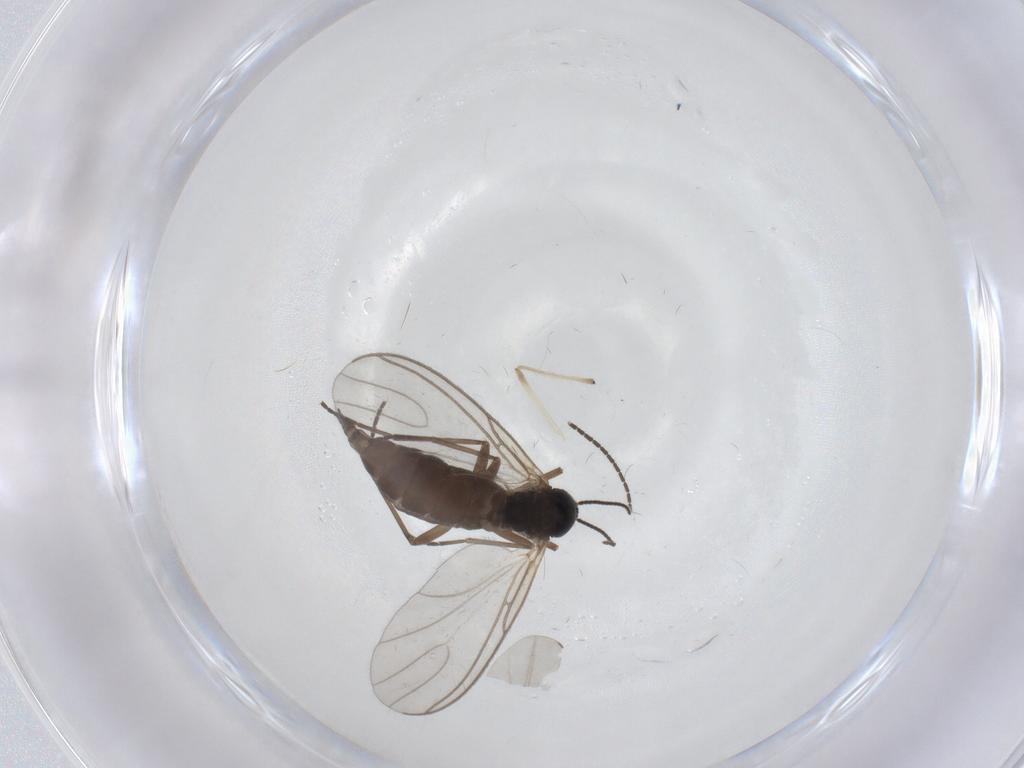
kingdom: Animalia
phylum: Arthropoda
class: Insecta
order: Diptera
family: Sciaridae
